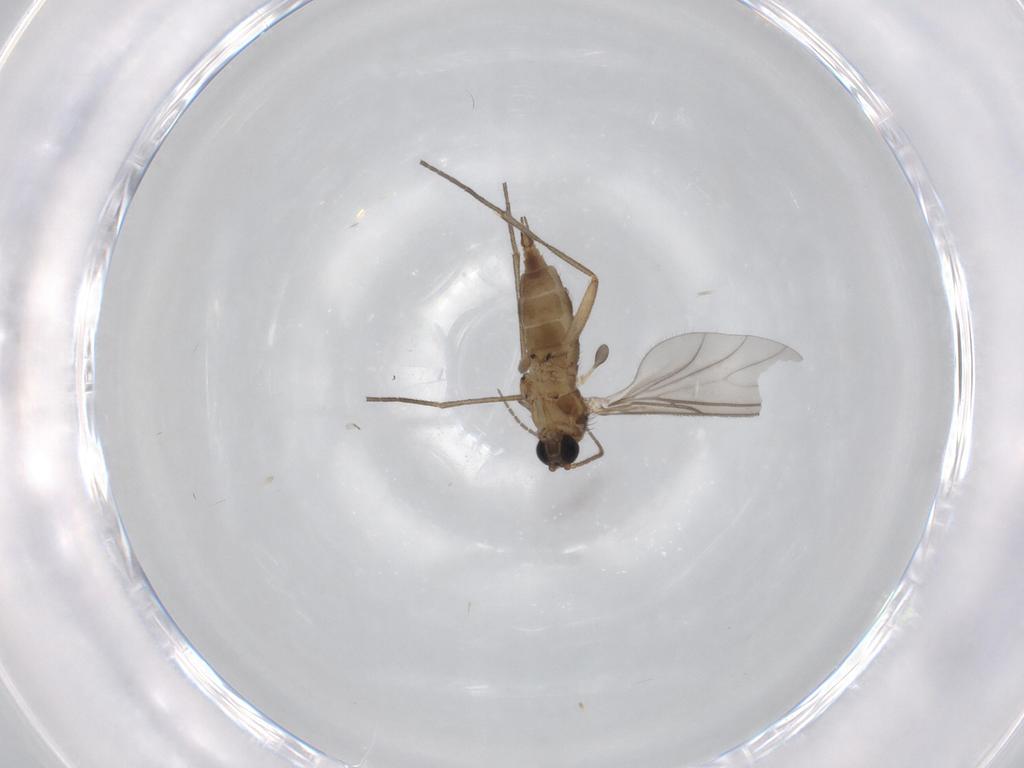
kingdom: Animalia
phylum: Arthropoda
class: Insecta
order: Diptera
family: Sciaridae
